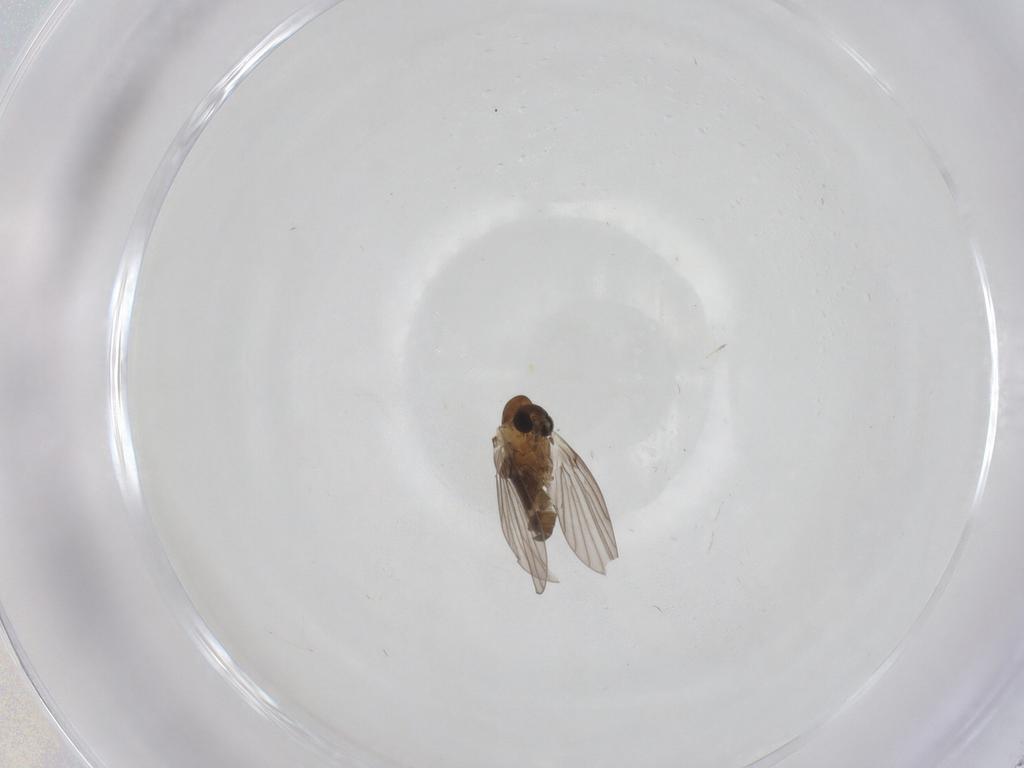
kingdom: Animalia
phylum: Arthropoda
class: Insecta
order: Diptera
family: Psychodidae
